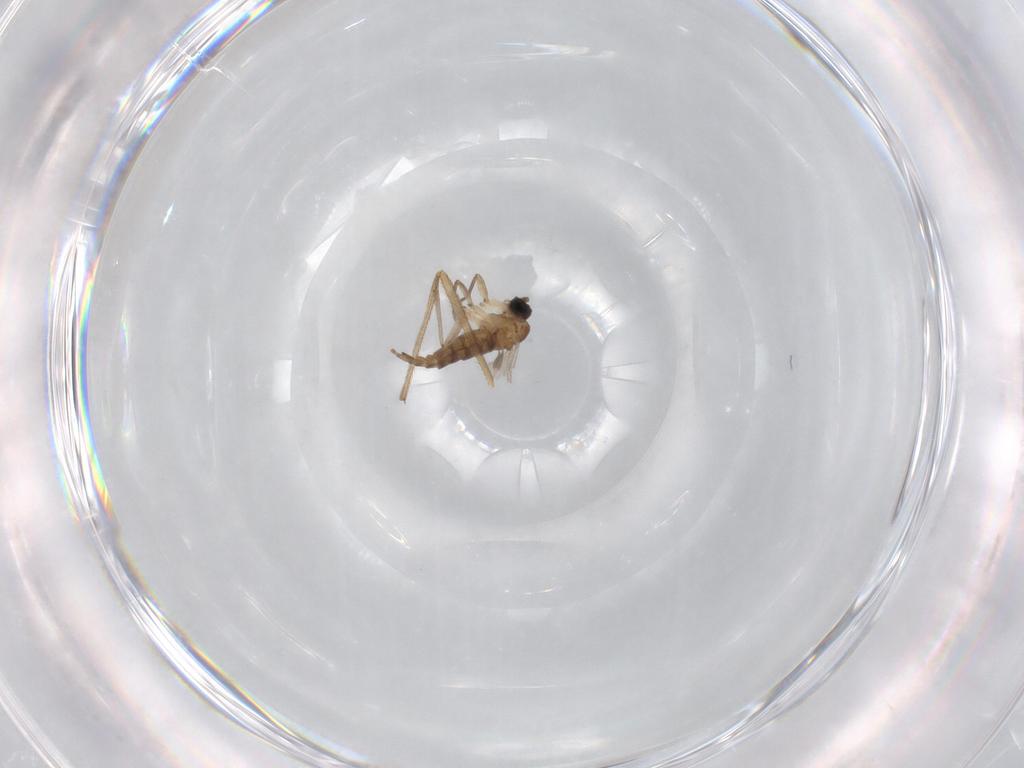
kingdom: Animalia
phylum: Arthropoda
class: Insecta
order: Diptera
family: Sciaridae
